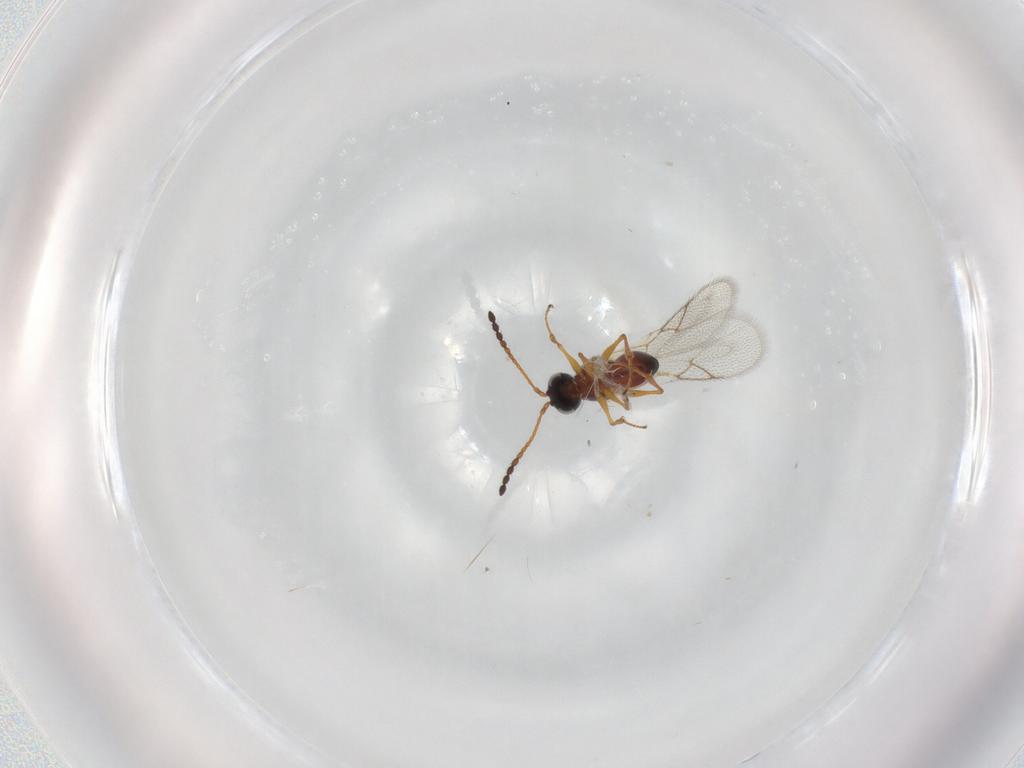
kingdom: Animalia
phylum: Arthropoda
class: Insecta
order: Hymenoptera
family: Figitidae
